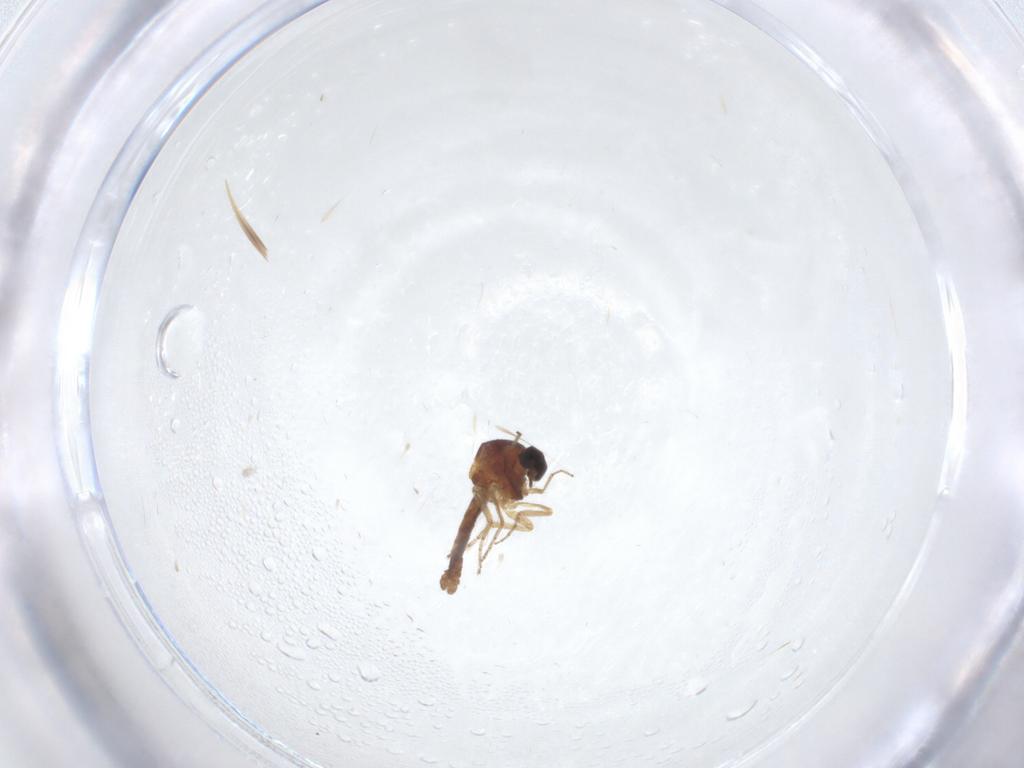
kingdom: Animalia
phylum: Arthropoda
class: Insecta
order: Diptera
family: Ceratopogonidae
